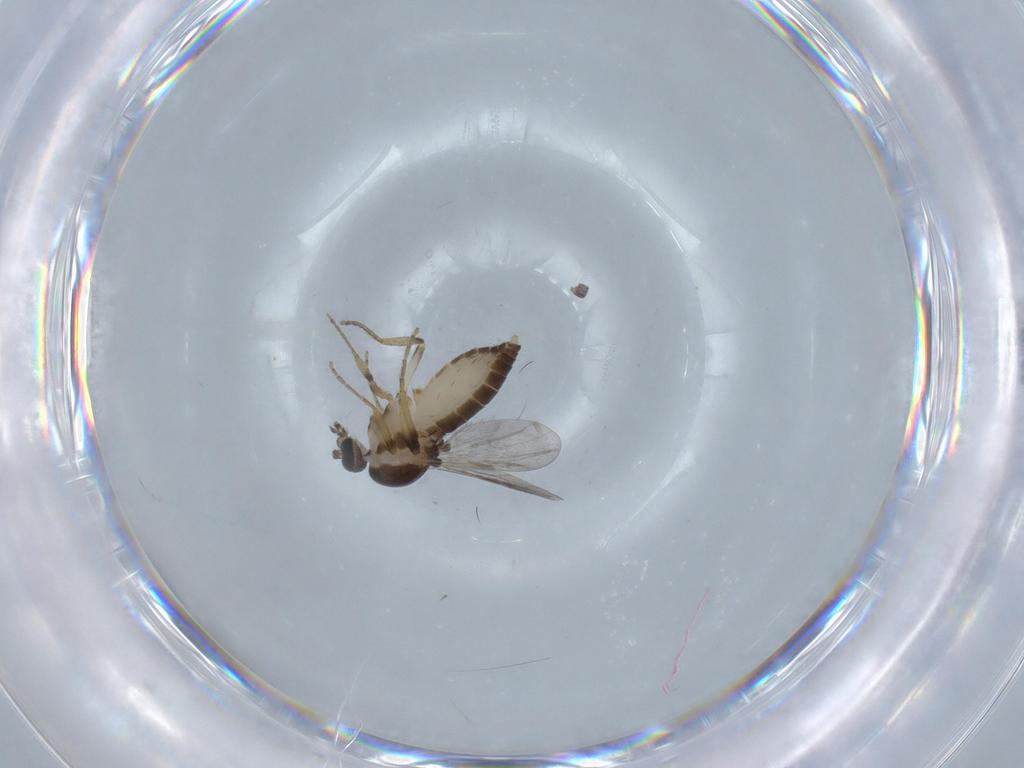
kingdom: Animalia
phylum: Arthropoda
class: Insecta
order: Diptera
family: Ceratopogonidae
